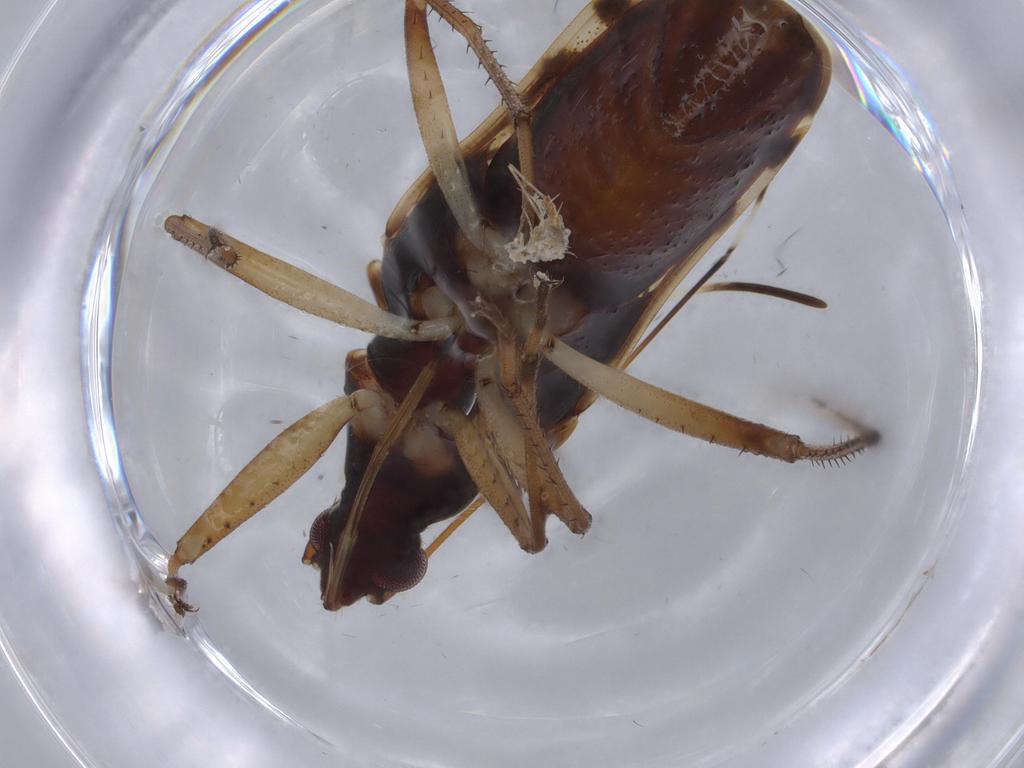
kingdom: Animalia
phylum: Arthropoda
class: Insecta
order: Hemiptera
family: Rhyparochromidae
